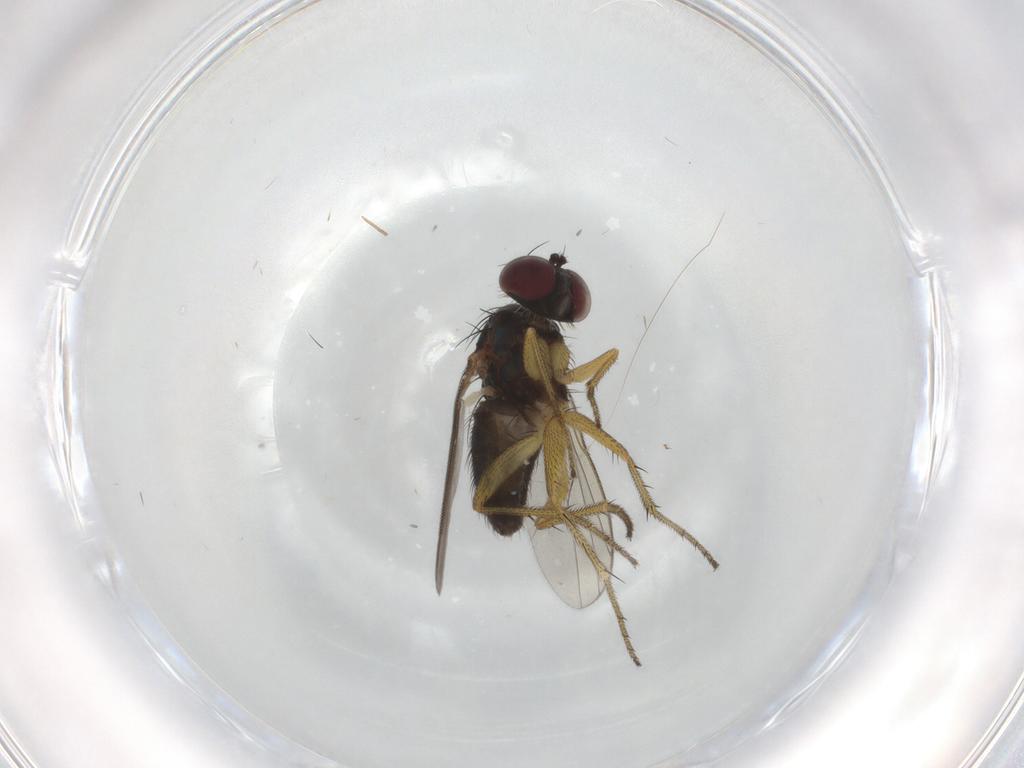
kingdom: Animalia
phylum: Arthropoda
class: Insecta
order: Diptera
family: Dolichopodidae
